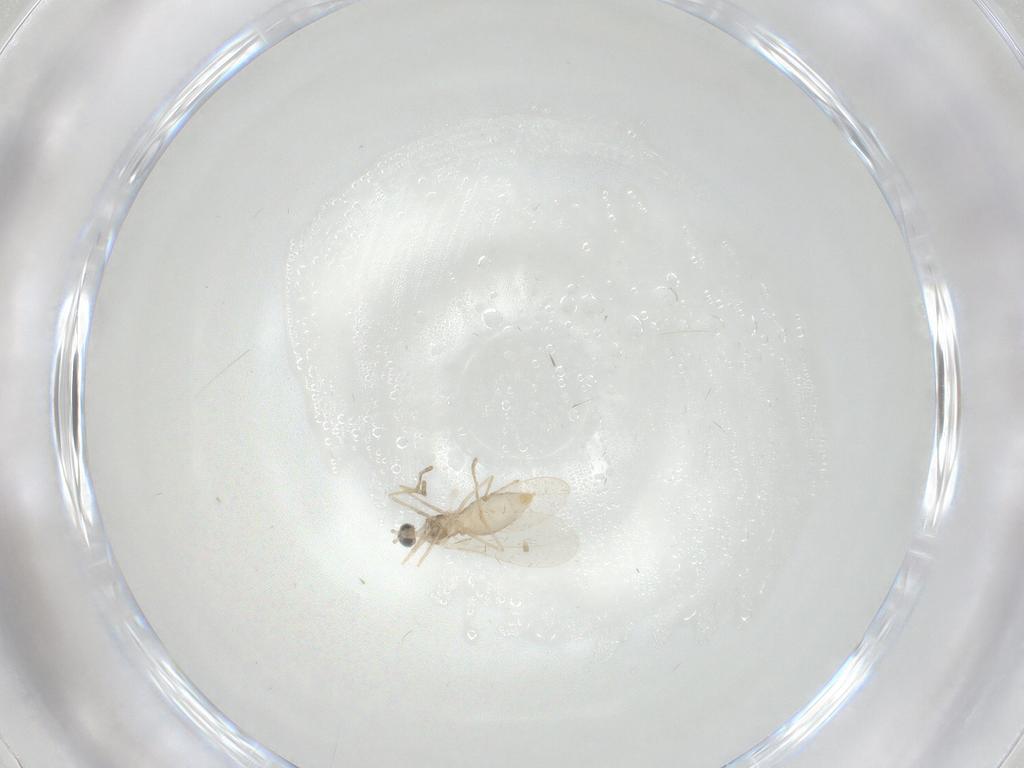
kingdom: Animalia
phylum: Arthropoda
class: Insecta
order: Diptera
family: Cecidomyiidae
